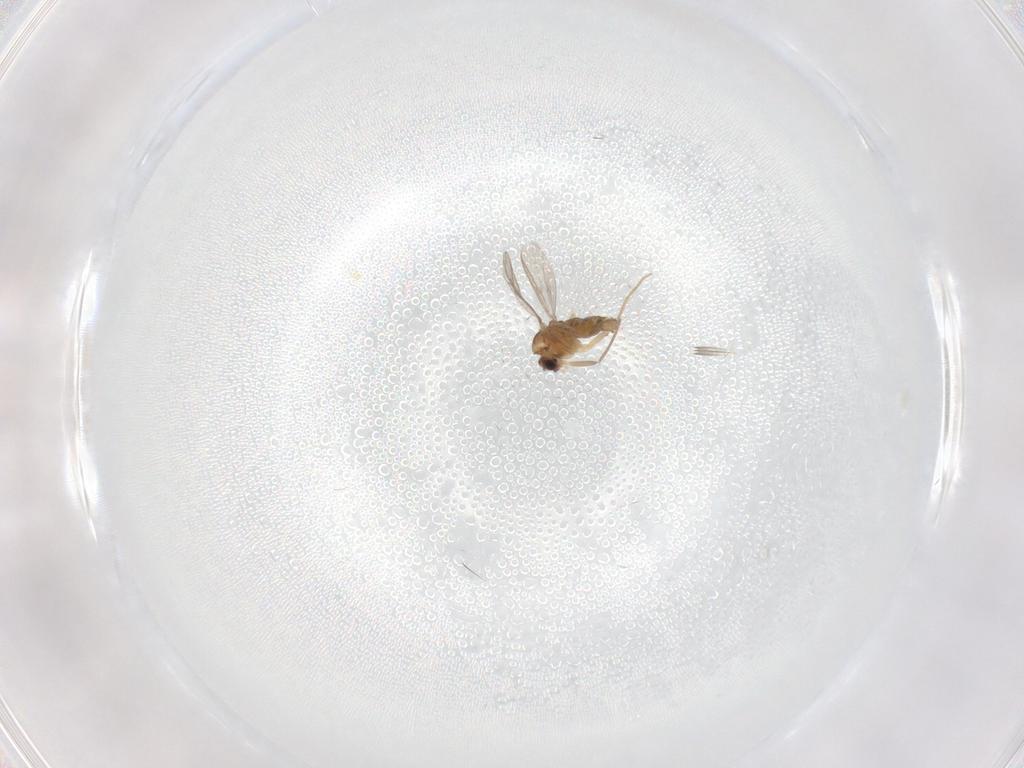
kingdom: Animalia
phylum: Arthropoda
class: Insecta
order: Diptera
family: Chironomidae
